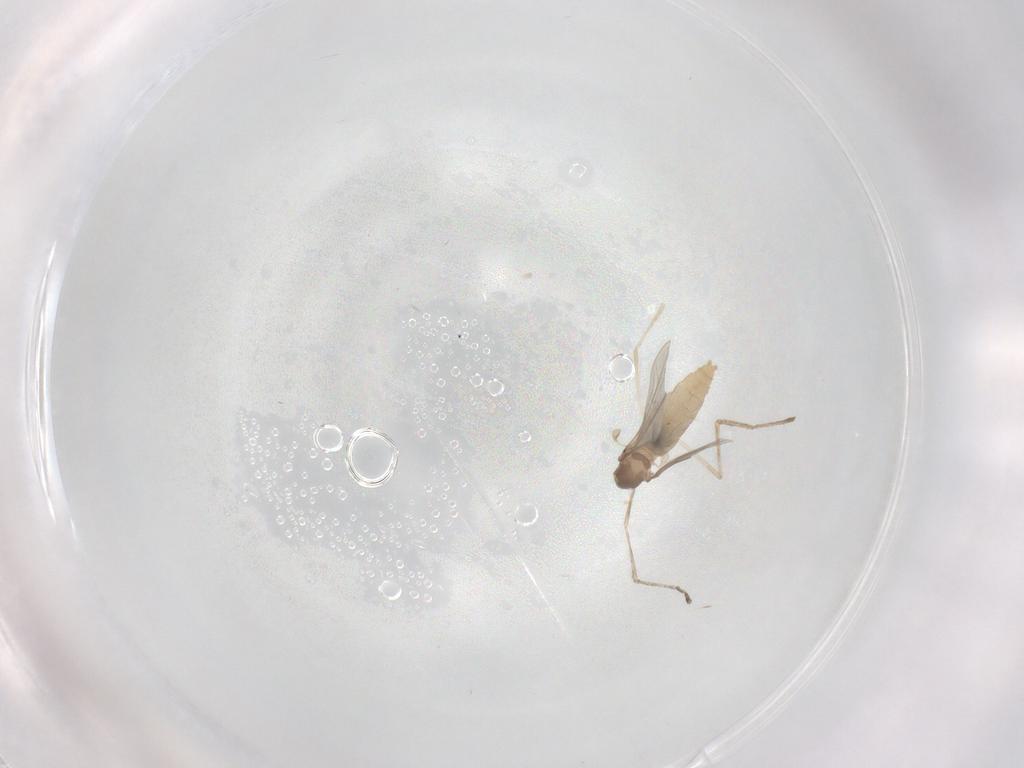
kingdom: Animalia
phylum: Arthropoda
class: Insecta
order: Diptera
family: Cecidomyiidae
